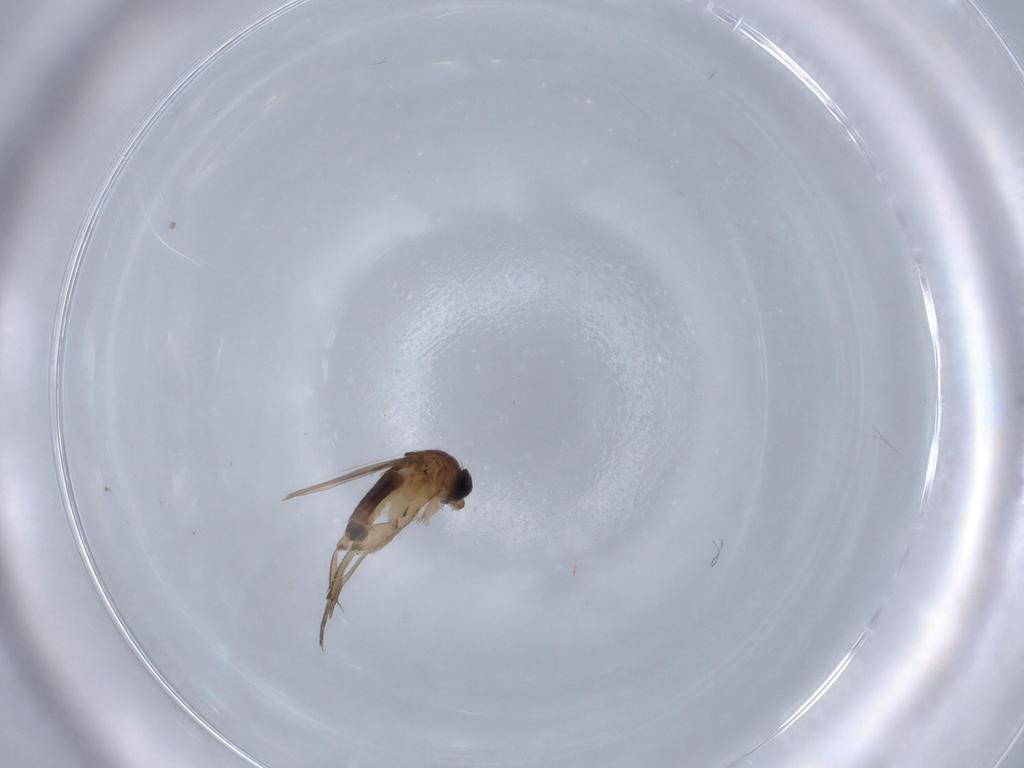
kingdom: Animalia
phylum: Arthropoda
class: Insecta
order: Diptera
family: Phoridae
